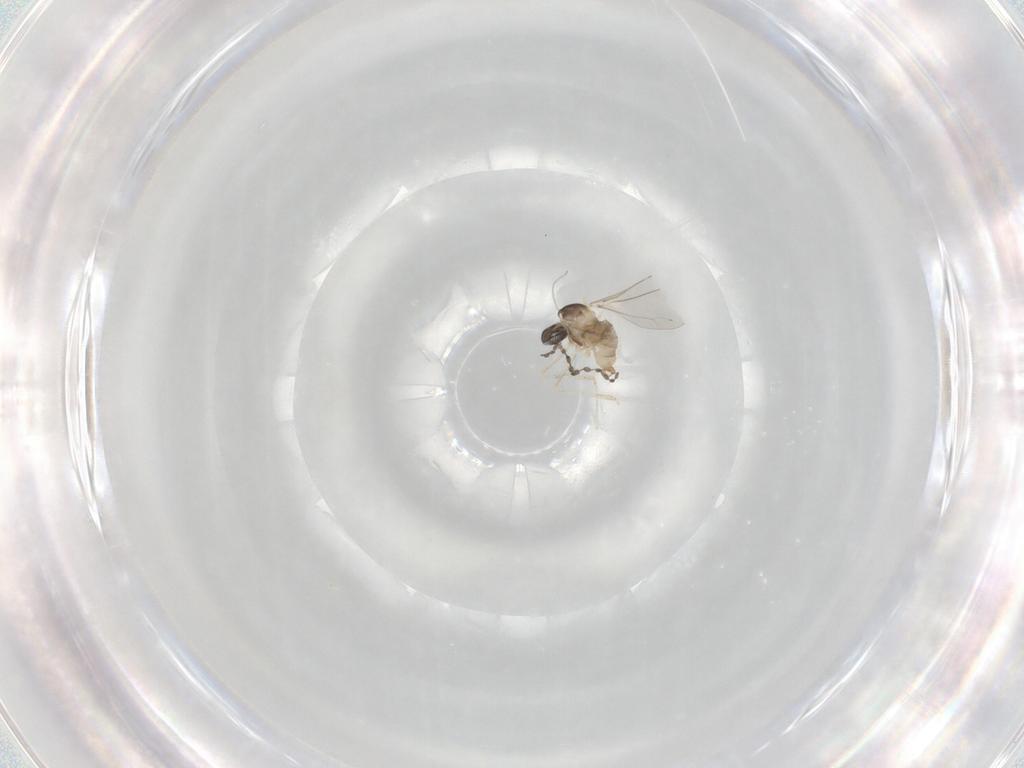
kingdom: Animalia
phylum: Arthropoda
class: Insecta
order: Diptera
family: Cecidomyiidae
